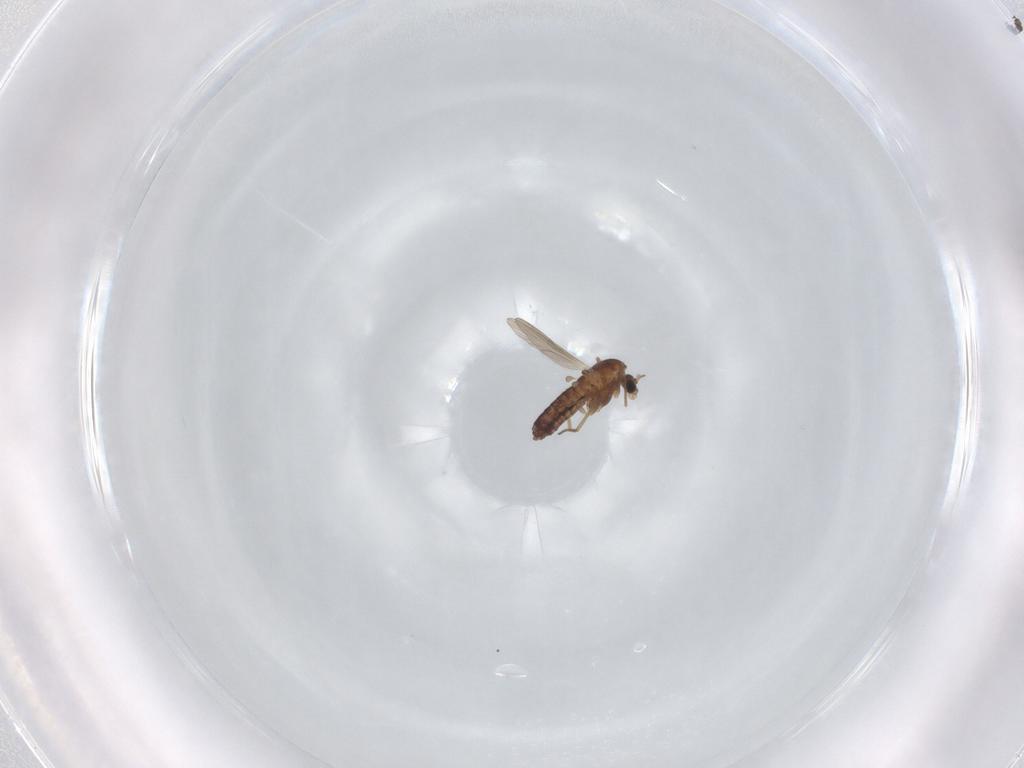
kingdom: Animalia
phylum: Arthropoda
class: Insecta
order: Diptera
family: Chironomidae
